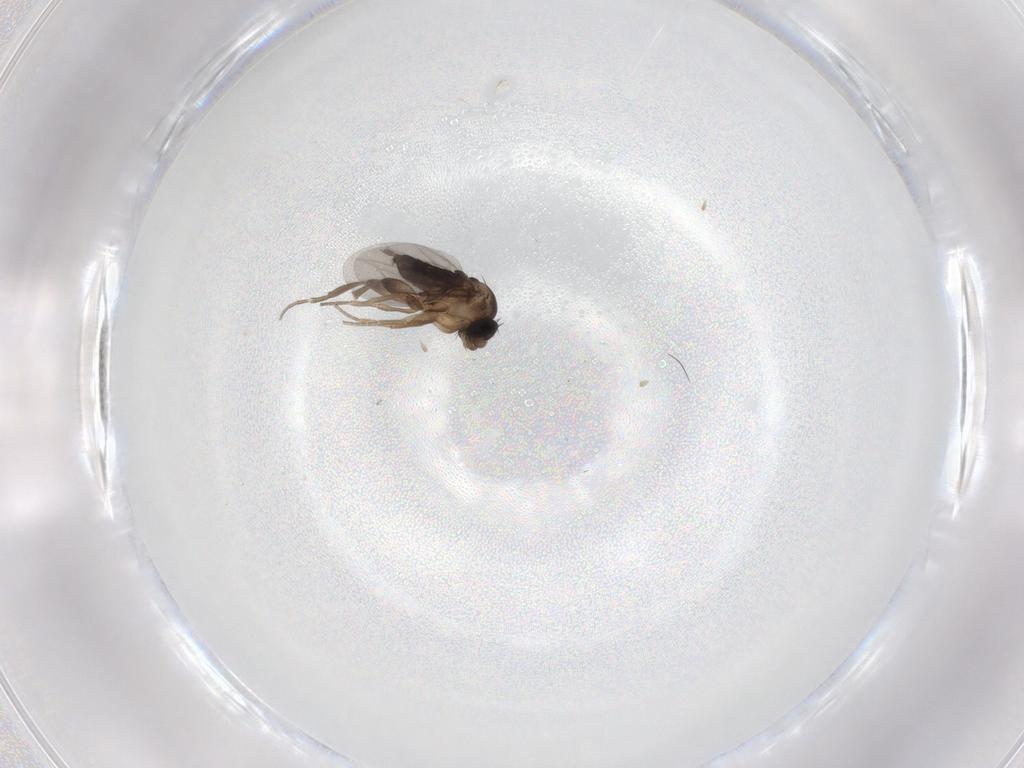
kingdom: Animalia
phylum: Arthropoda
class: Insecta
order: Diptera
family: Phoridae
